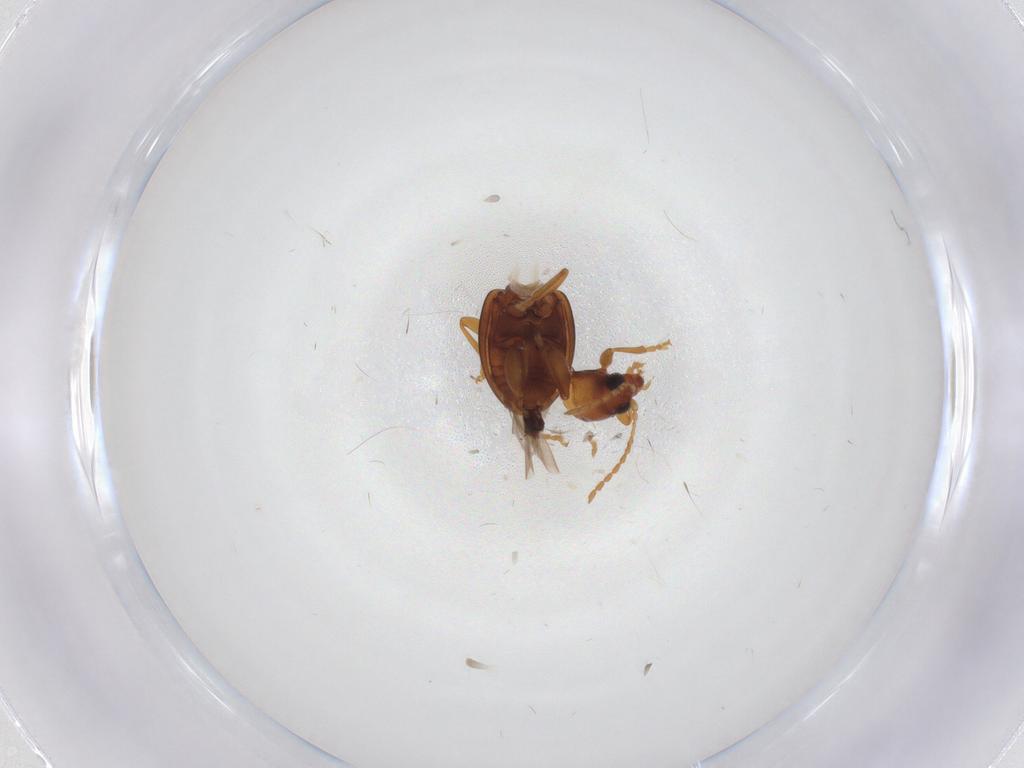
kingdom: Animalia
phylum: Arthropoda
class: Insecta
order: Coleoptera
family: Chrysomelidae
